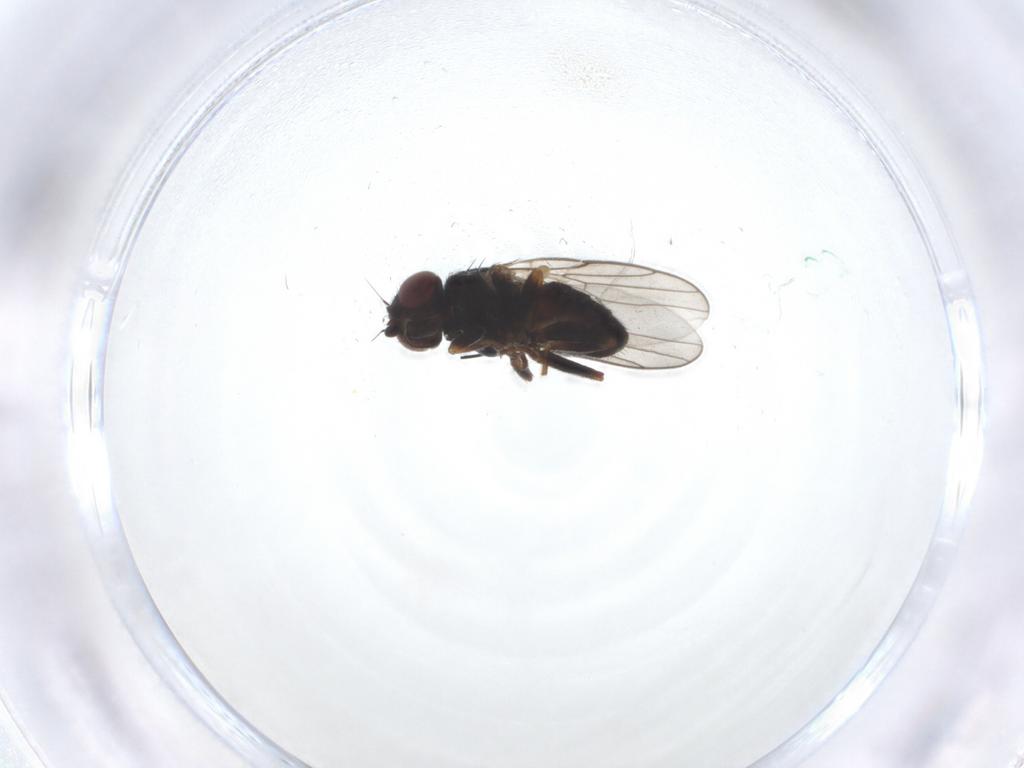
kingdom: Animalia
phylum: Arthropoda
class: Insecta
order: Diptera
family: Chloropidae
